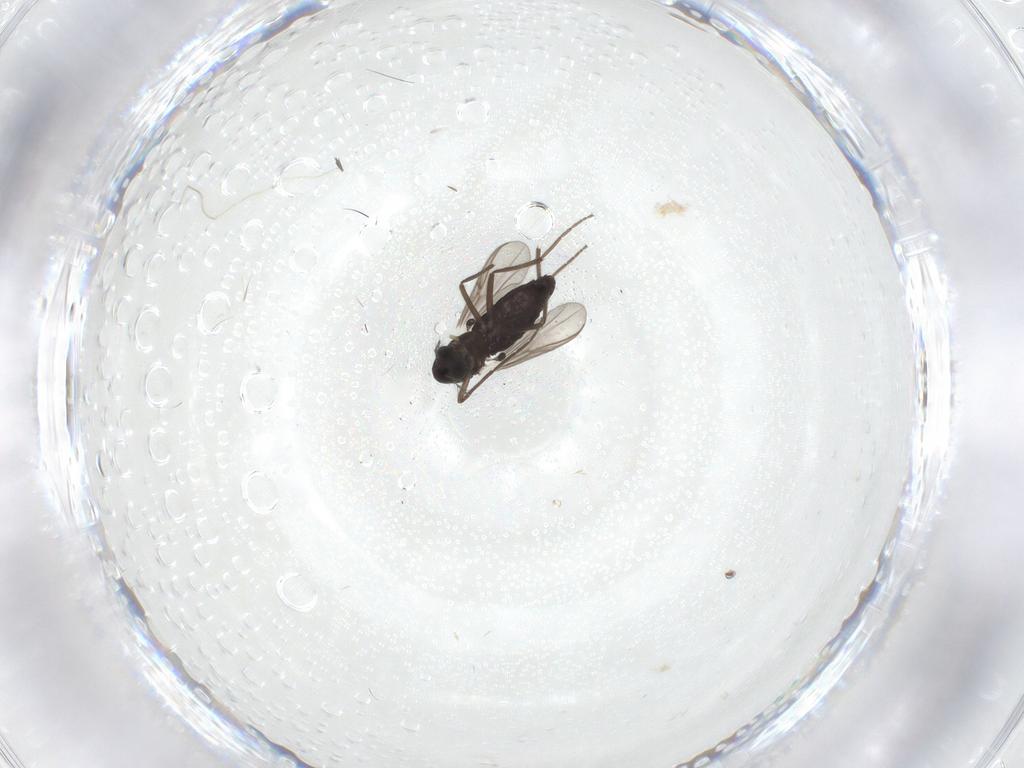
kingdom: Animalia
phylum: Arthropoda
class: Insecta
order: Diptera
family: Chironomidae
